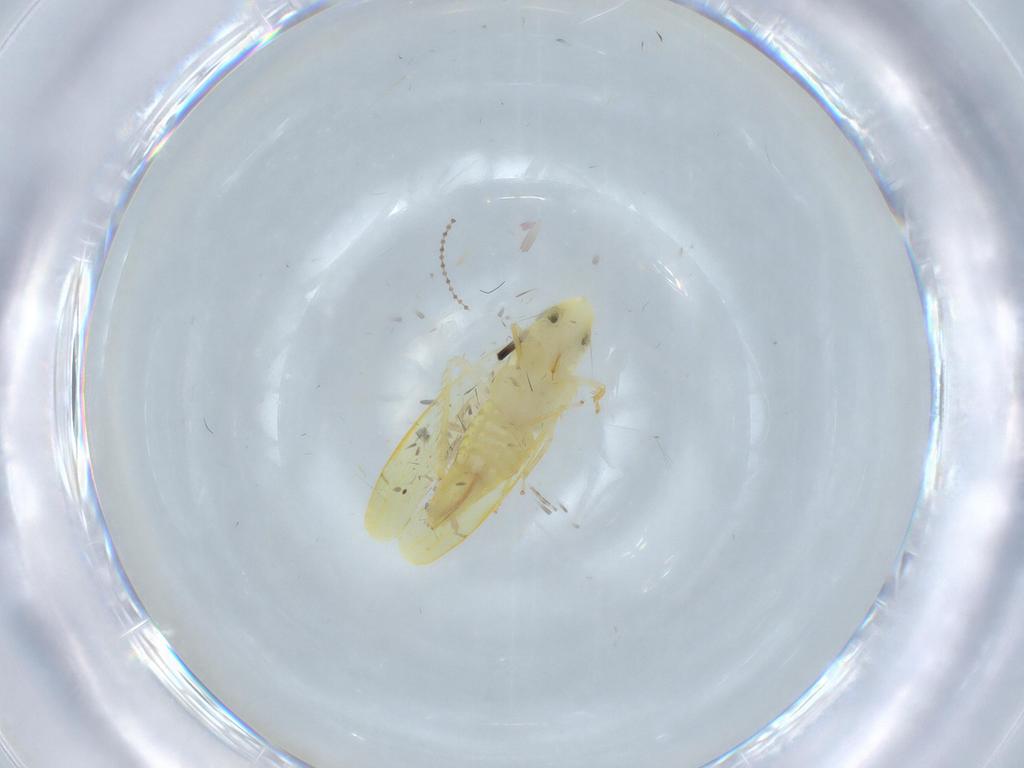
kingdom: Animalia
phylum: Arthropoda
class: Insecta
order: Hemiptera
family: Cicadellidae
